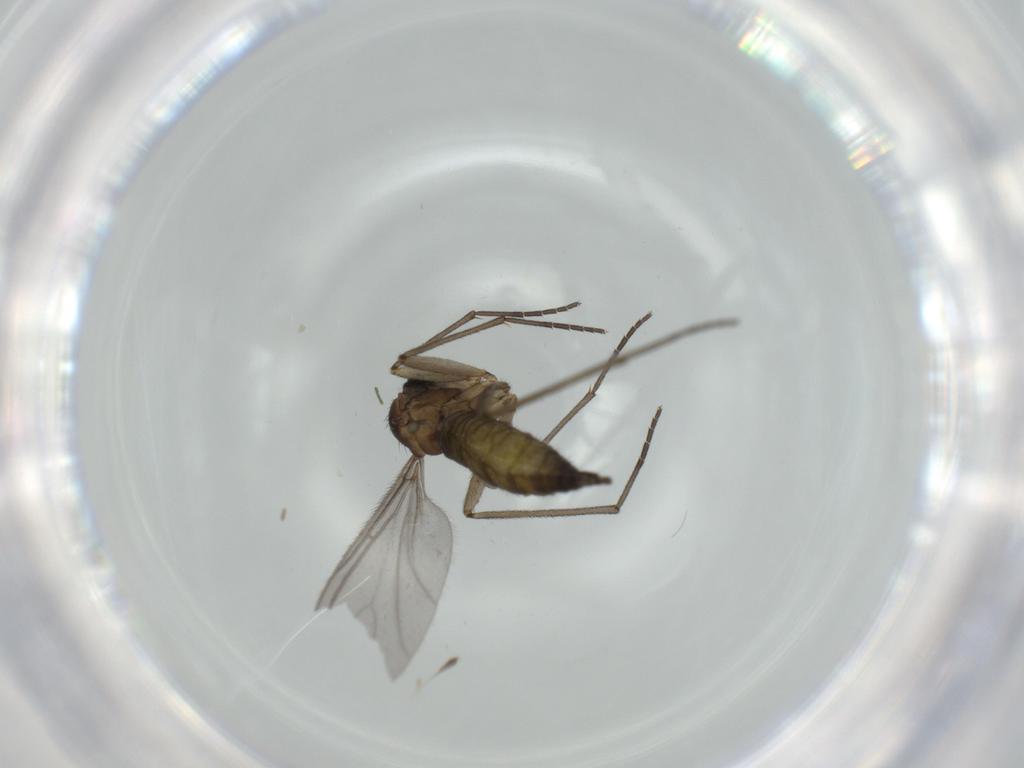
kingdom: Animalia
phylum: Arthropoda
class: Insecta
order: Diptera
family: Sciaridae
